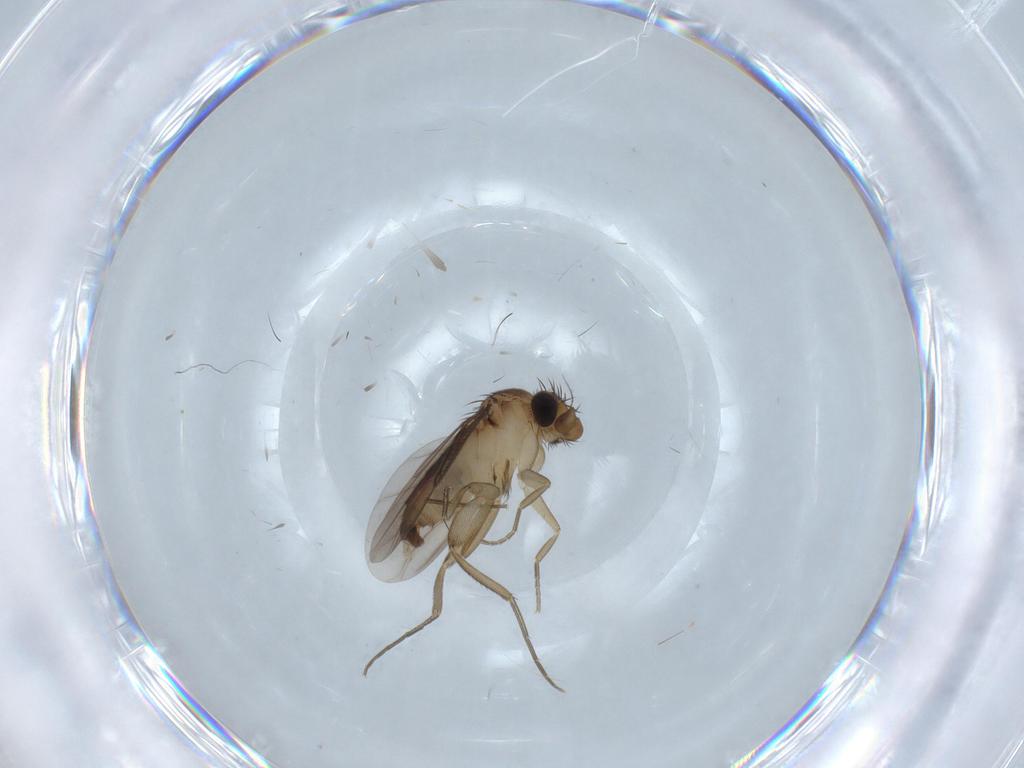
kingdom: Animalia
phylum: Arthropoda
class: Insecta
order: Diptera
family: Phoridae
